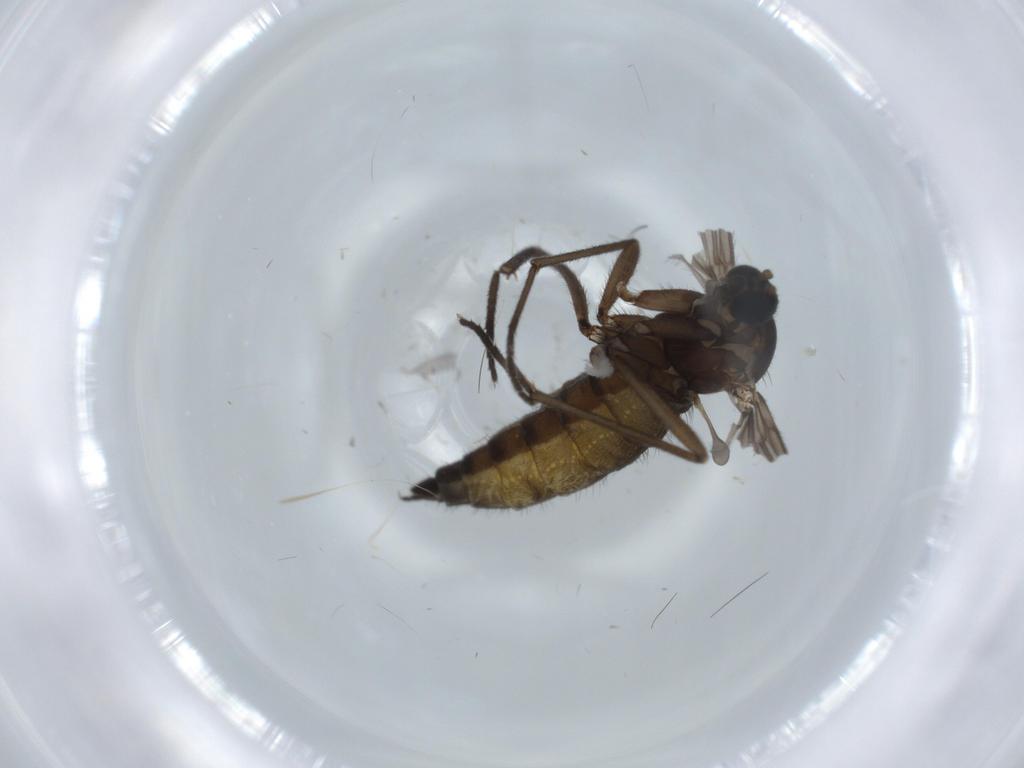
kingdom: Animalia
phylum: Arthropoda
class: Insecta
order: Diptera
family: Sciaridae
